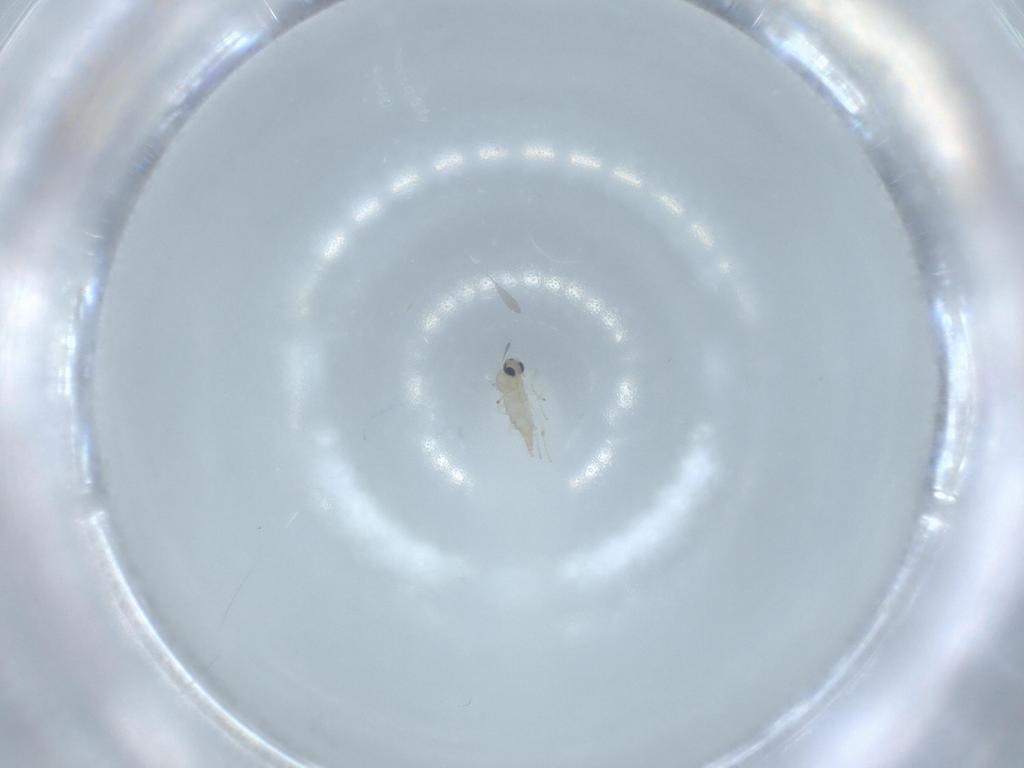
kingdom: Animalia
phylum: Arthropoda
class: Insecta
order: Diptera
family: Cecidomyiidae
